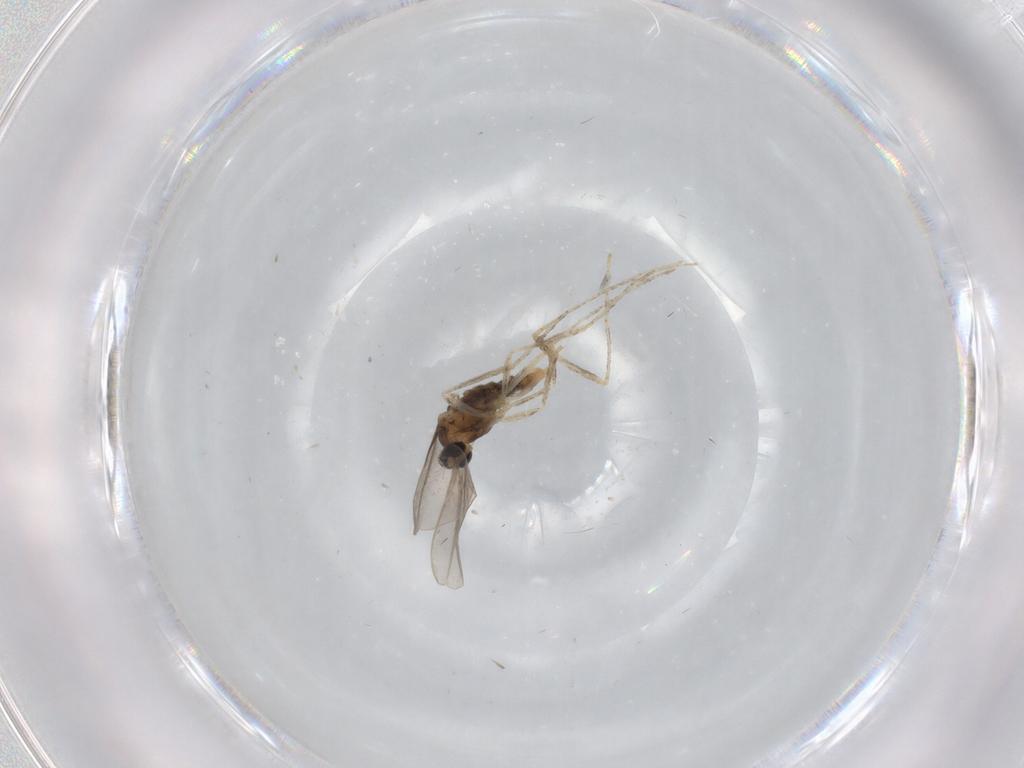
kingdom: Animalia
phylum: Arthropoda
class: Insecta
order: Diptera
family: Cecidomyiidae
